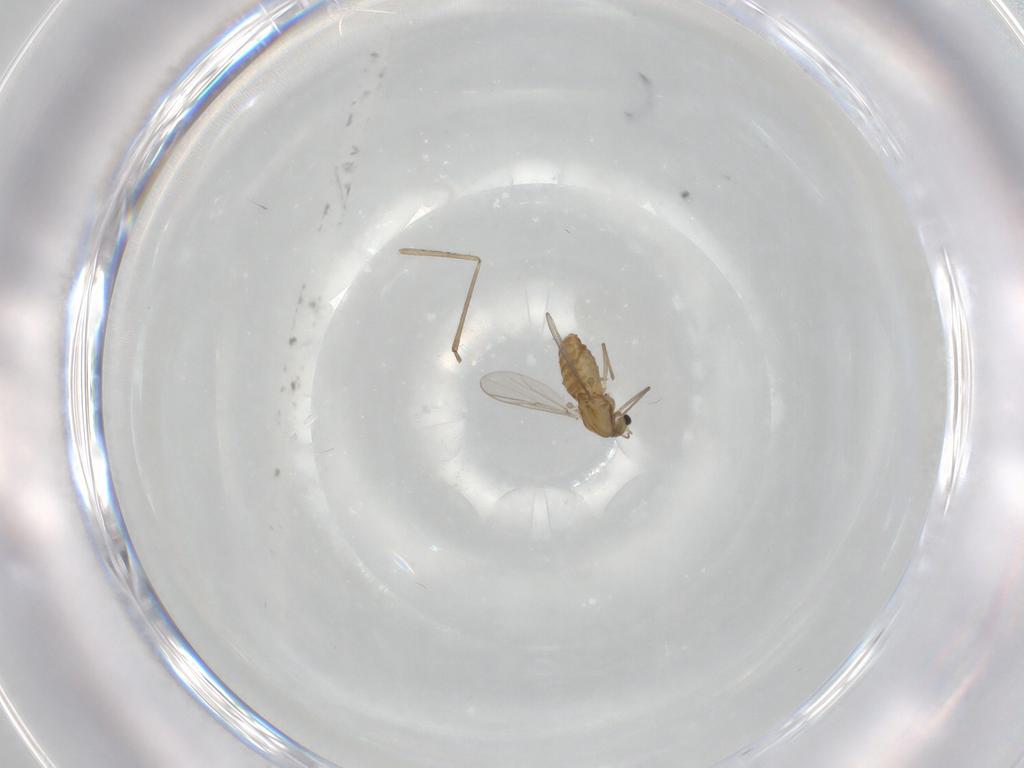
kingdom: Animalia
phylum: Arthropoda
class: Insecta
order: Diptera
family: Chironomidae
